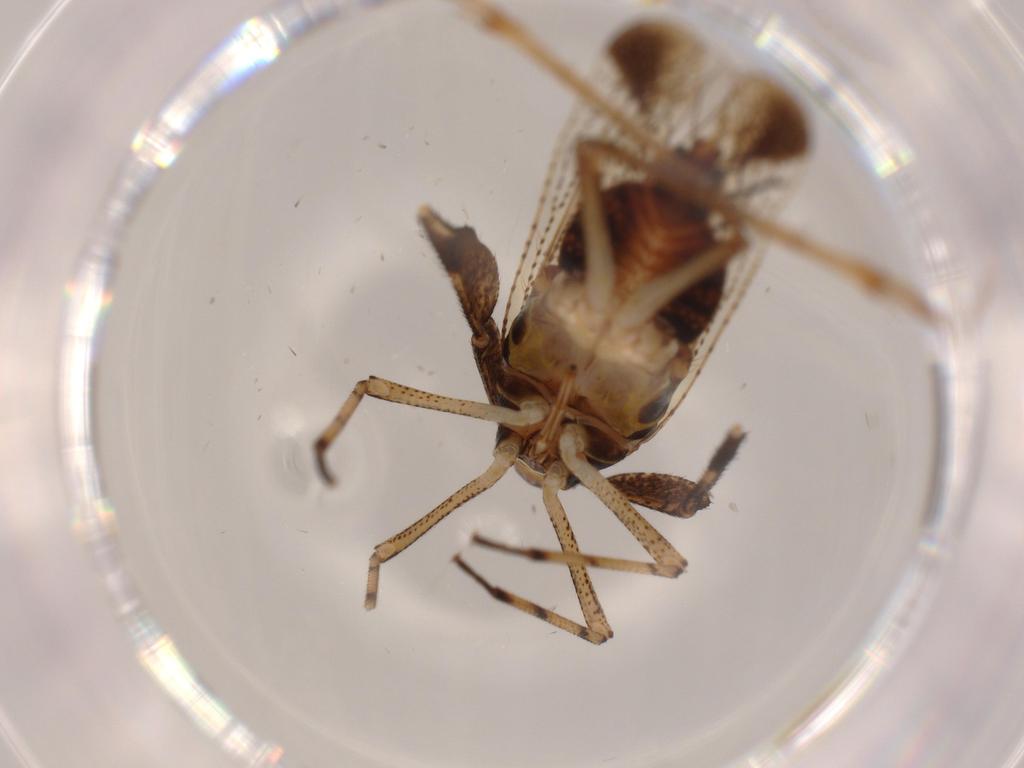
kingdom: Animalia
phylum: Arthropoda
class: Insecta
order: Hemiptera
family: Delphacidae
